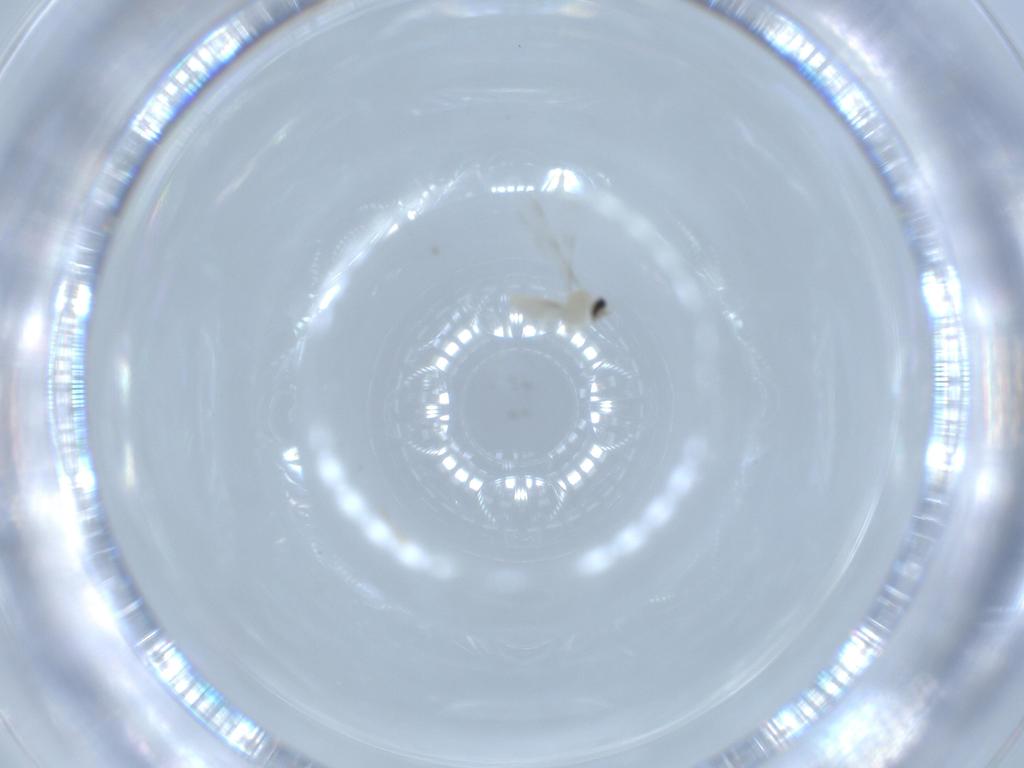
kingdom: Animalia
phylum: Arthropoda
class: Insecta
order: Diptera
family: Cecidomyiidae
